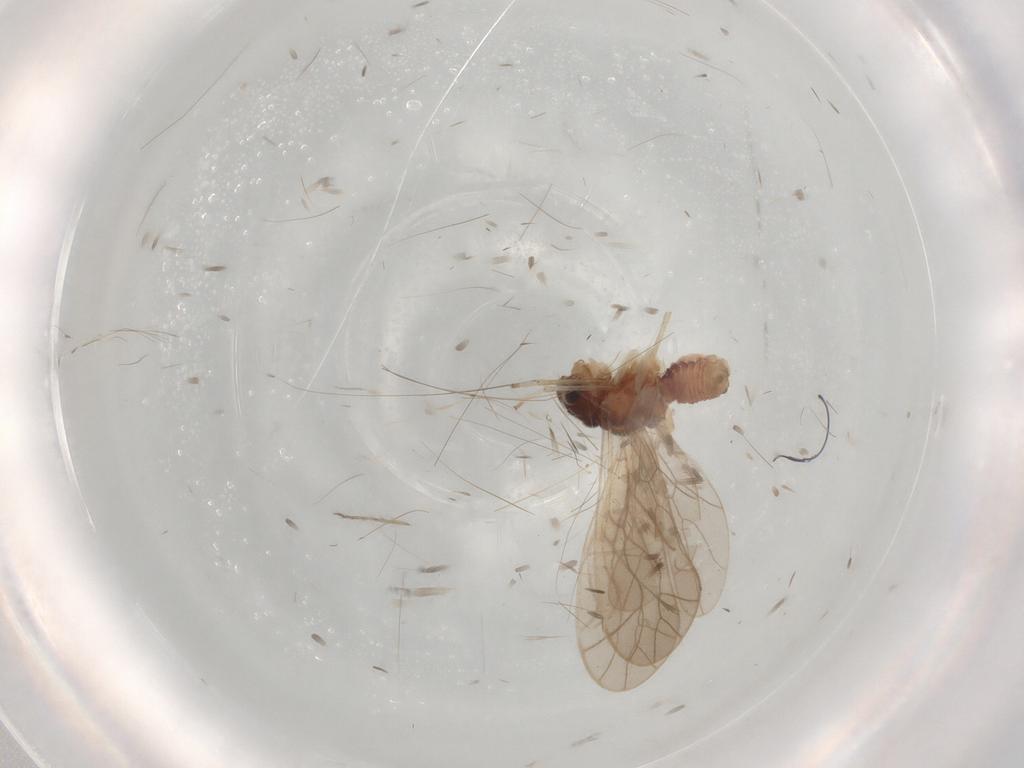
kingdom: Animalia
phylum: Arthropoda
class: Insecta
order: Psocodea
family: Caeciliusidae
